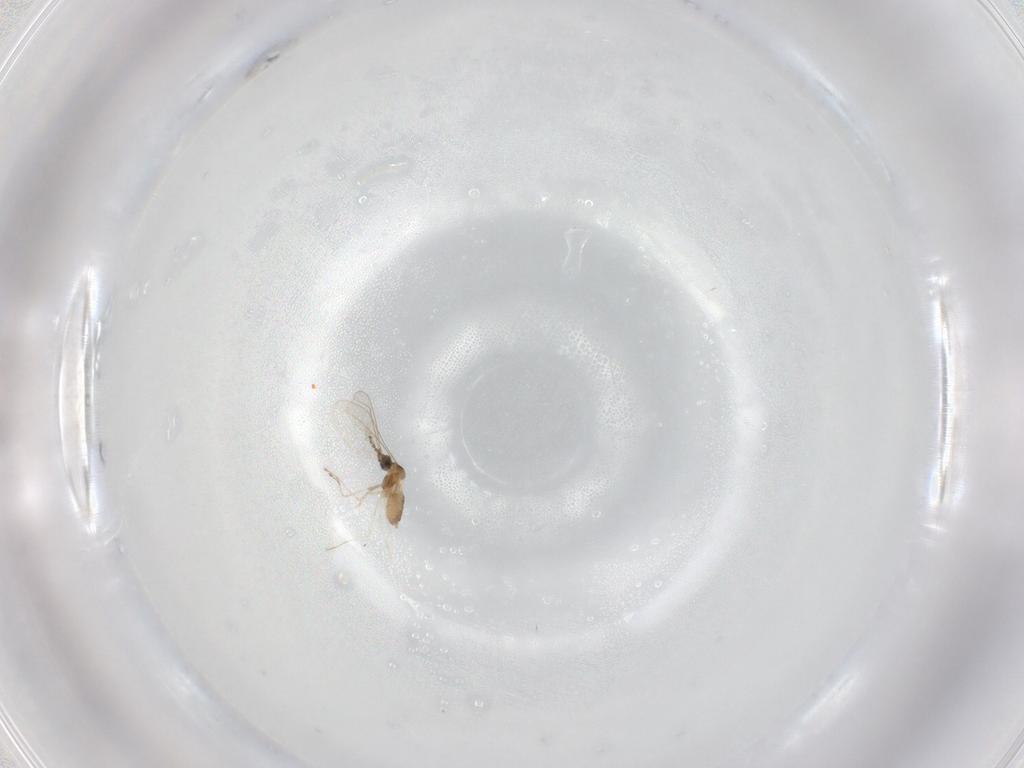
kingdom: Animalia
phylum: Arthropoda
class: Insecta
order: Diptera
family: Cecidomyiidae
